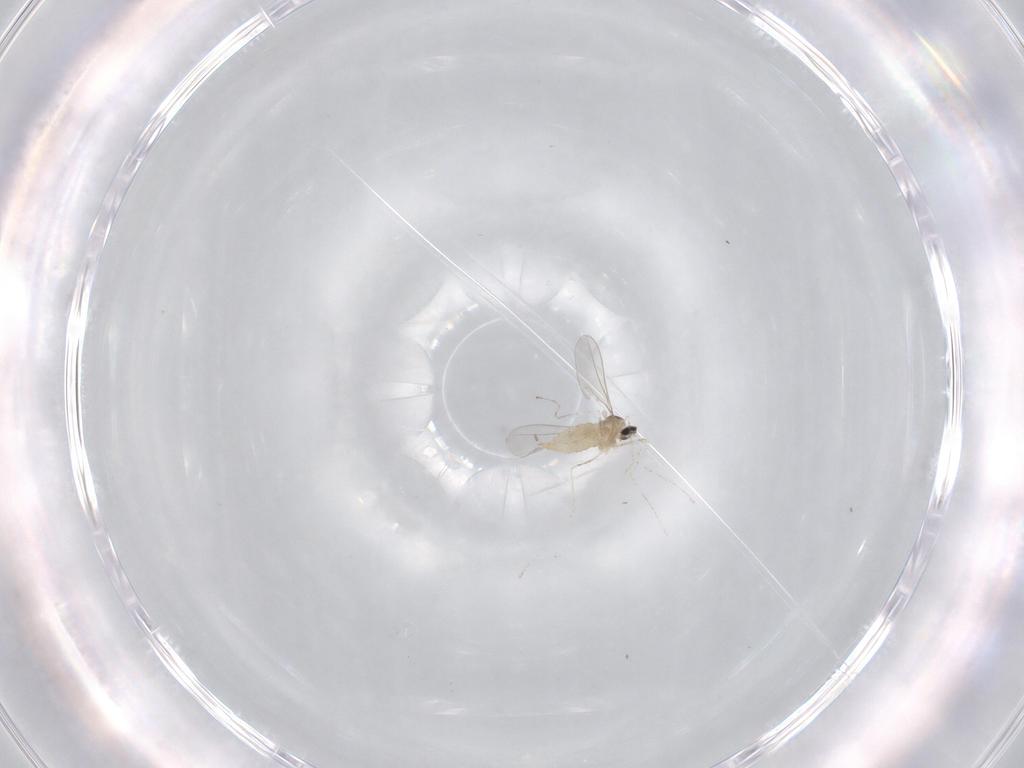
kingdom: Animalia
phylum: Arthropoda
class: Insecta
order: Diptera
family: Cecidomyiidae
